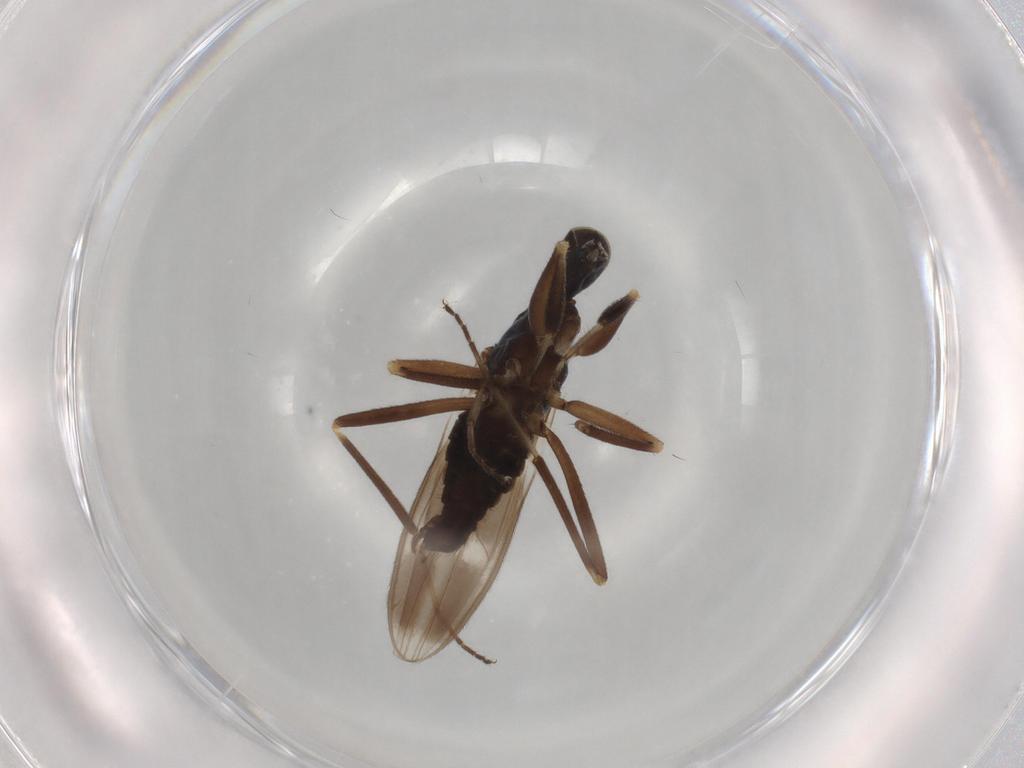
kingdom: Animalia
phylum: Arthropoda
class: Insecta
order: Diptera
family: Hybotidae
